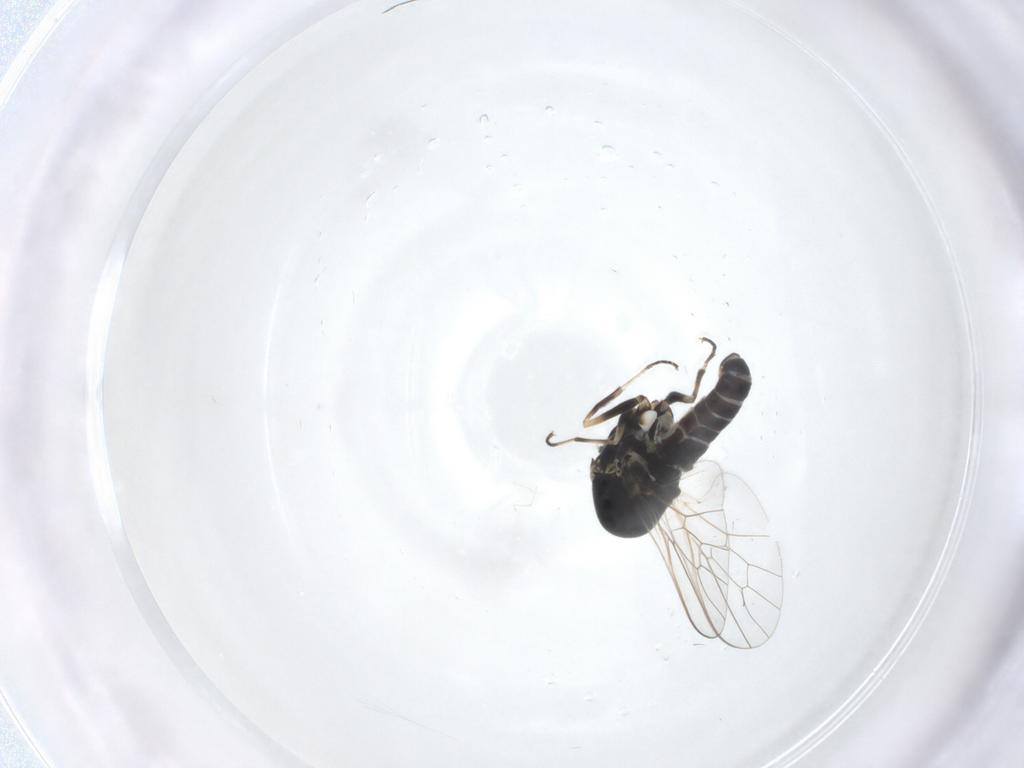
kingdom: Animalia
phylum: Arthropoda
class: Insecta
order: Diptera
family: Bombyliidae
